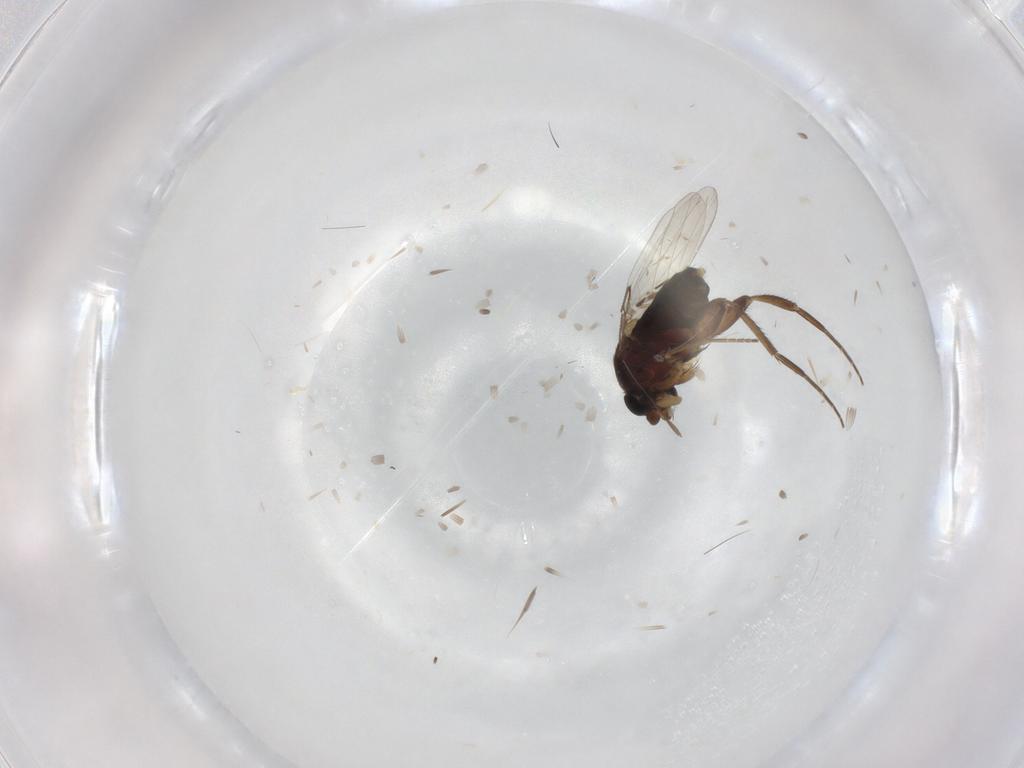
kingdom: Animalia
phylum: Arthropoda
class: Insecta
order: Diptera
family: Phoridae
